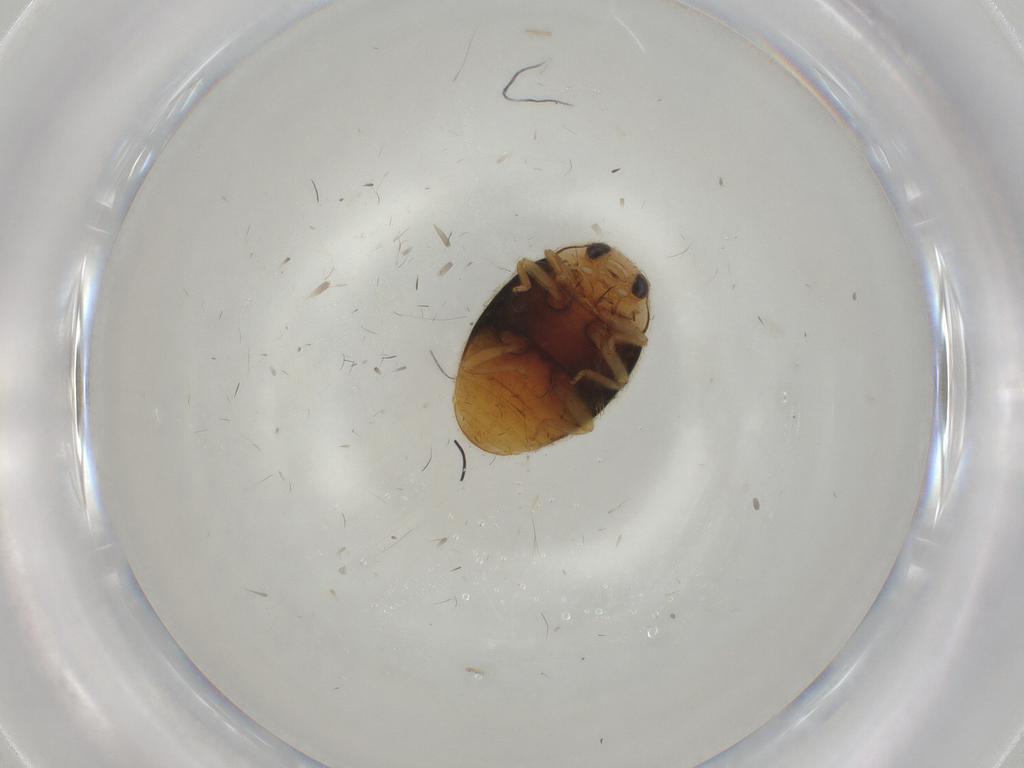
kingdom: Animalia
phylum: Arthropoda
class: Insecta
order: Coleoptera
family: Coccinellidae
